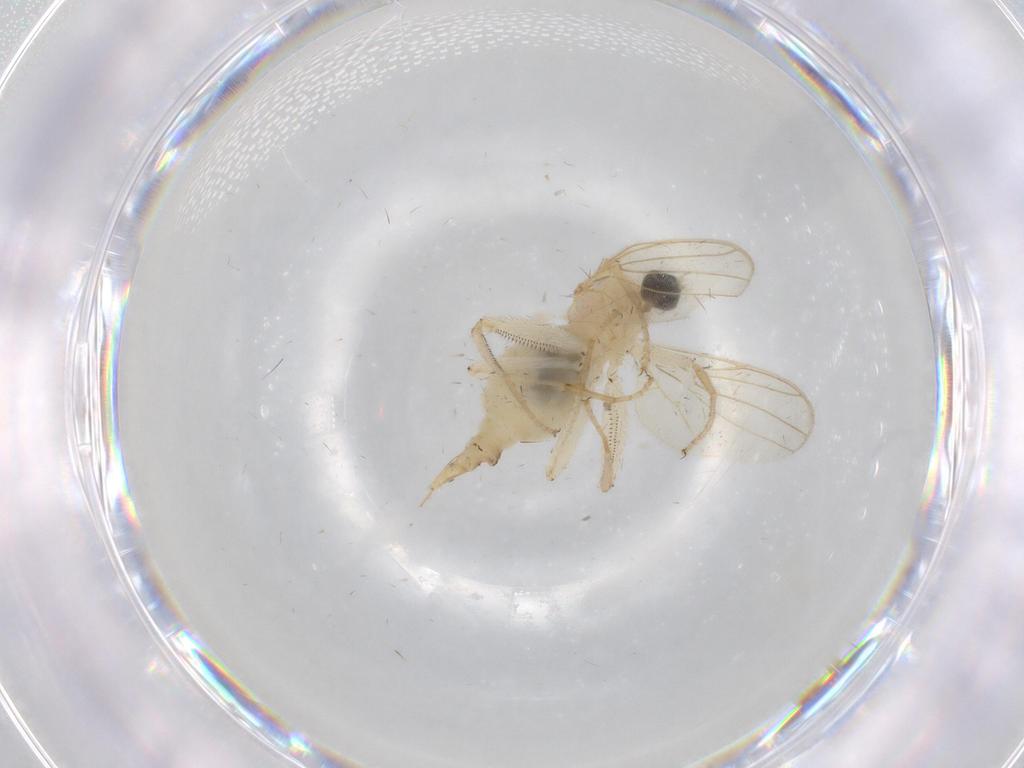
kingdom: Animalia
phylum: Arthropoda
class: Insecta
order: Diptera
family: Hybotidae
